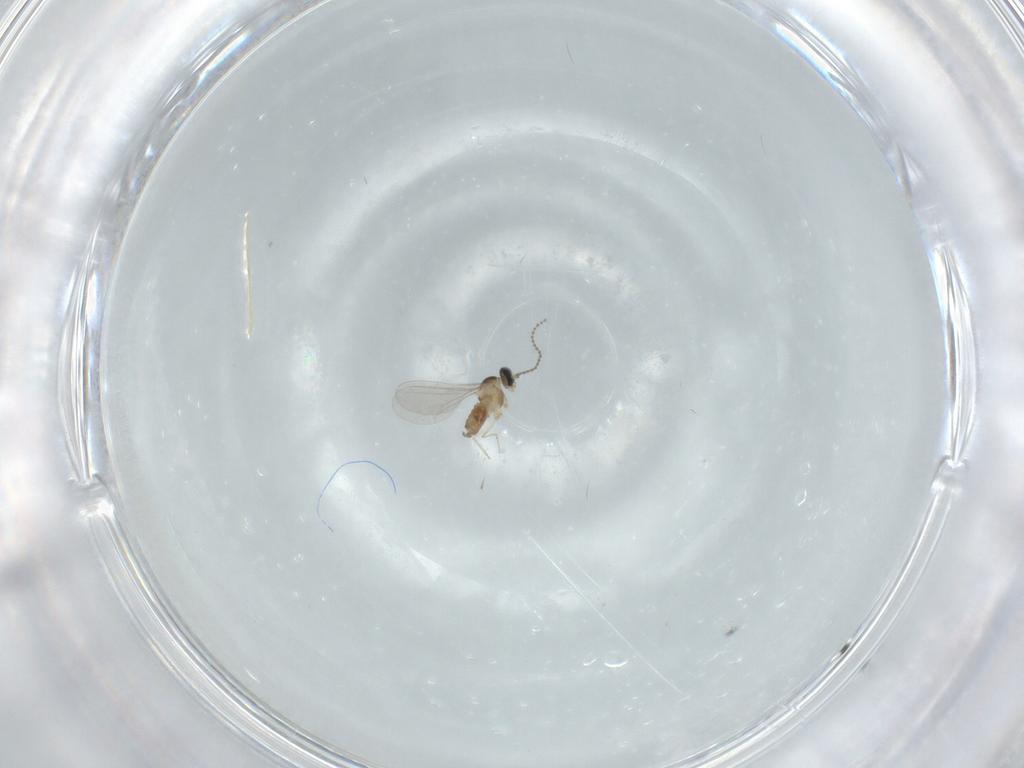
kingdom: Animalia
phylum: Arthropoda
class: Insecta
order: Diptera
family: Cecidomyiidae
